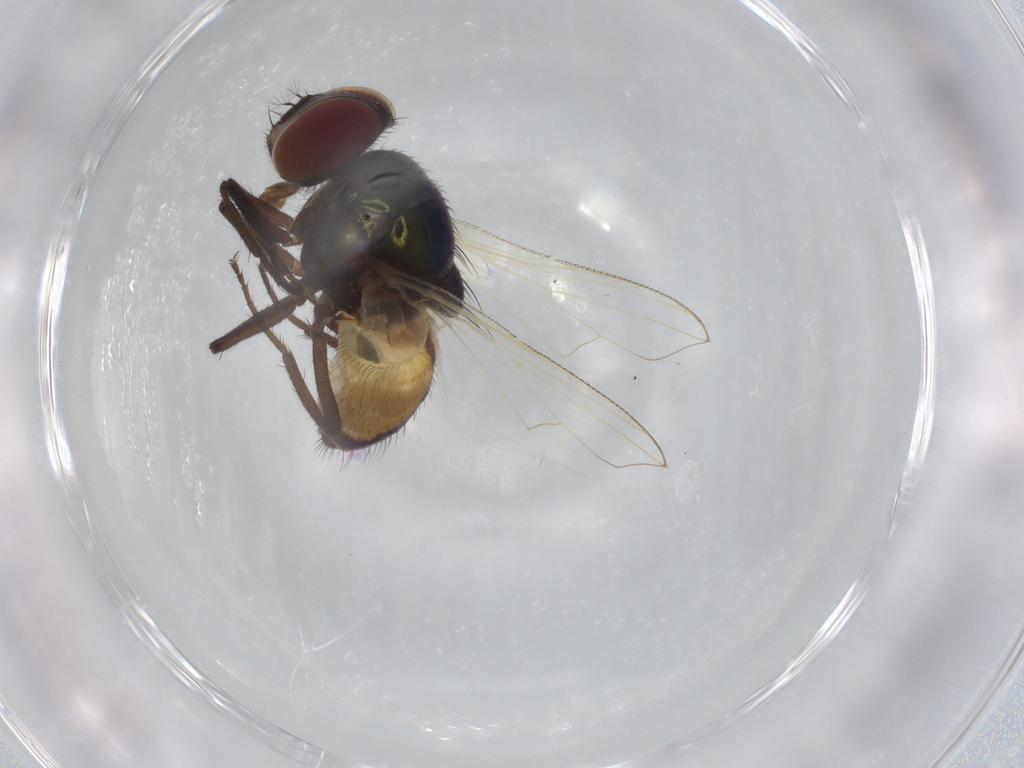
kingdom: Animalia
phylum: Arthropoda
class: Insecta
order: Diptera
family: Muscidae
